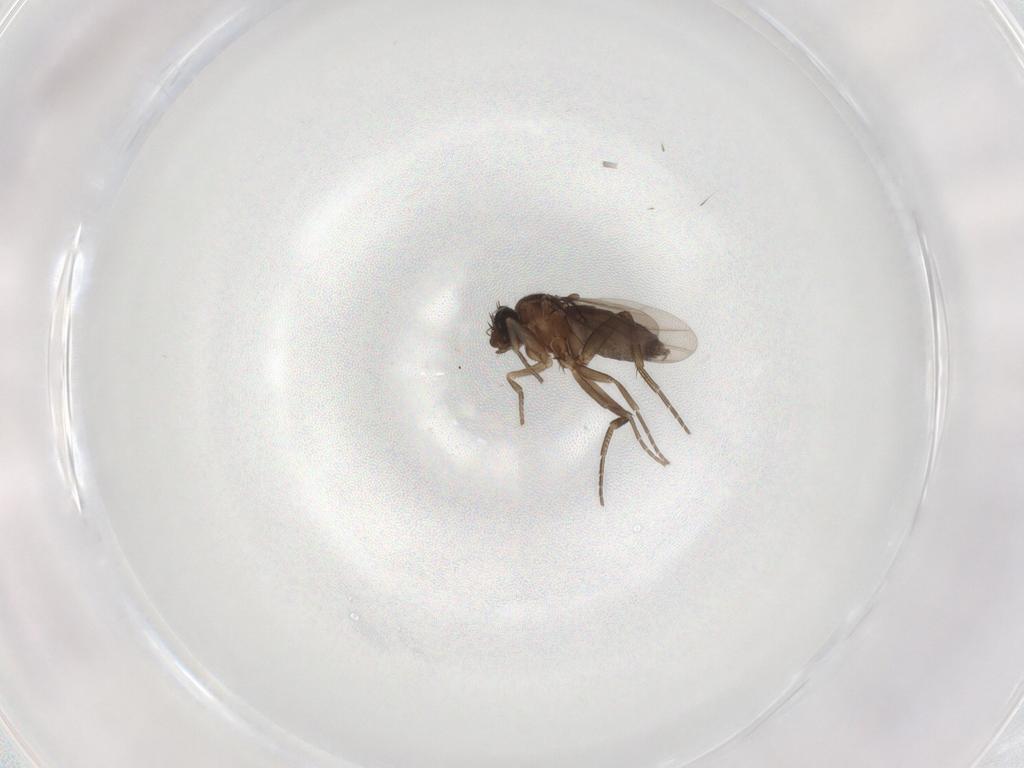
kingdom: Animalia
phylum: Arthropoda
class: Insecta
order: Diptera
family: Phoridae
